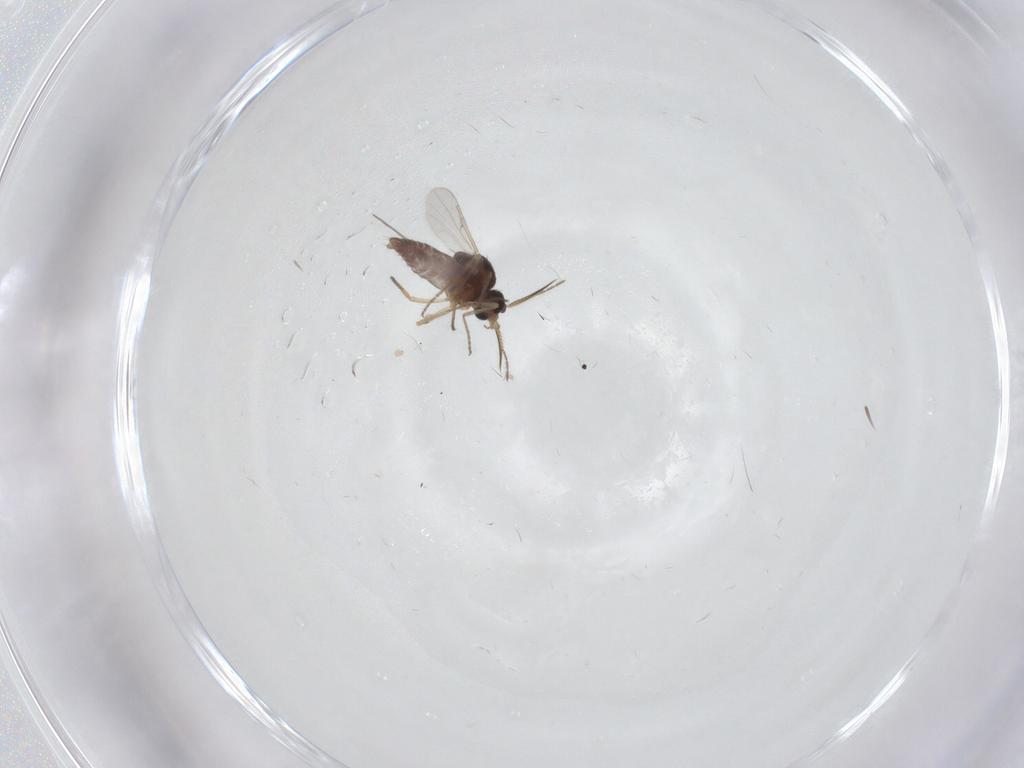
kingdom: Animalia
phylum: Arthropoda
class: Insecta
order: Diptera
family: Ceratopogonidae
